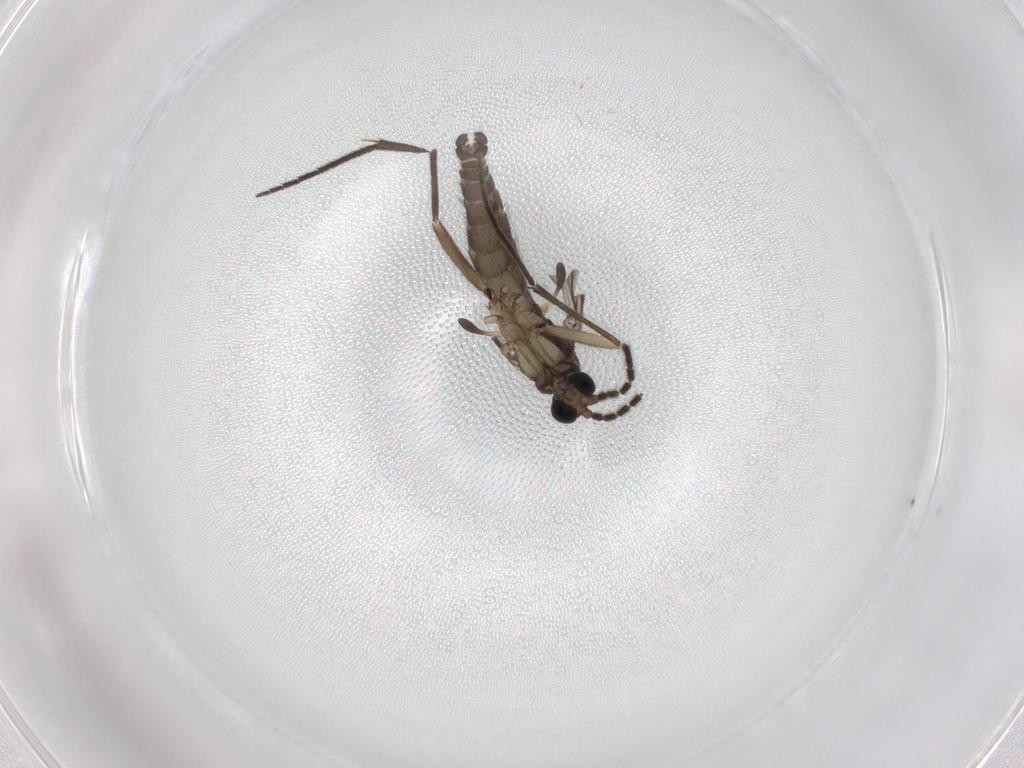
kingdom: Animalia
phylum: Arthropoda
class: Insecta
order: Diptera
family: Sciaridae
